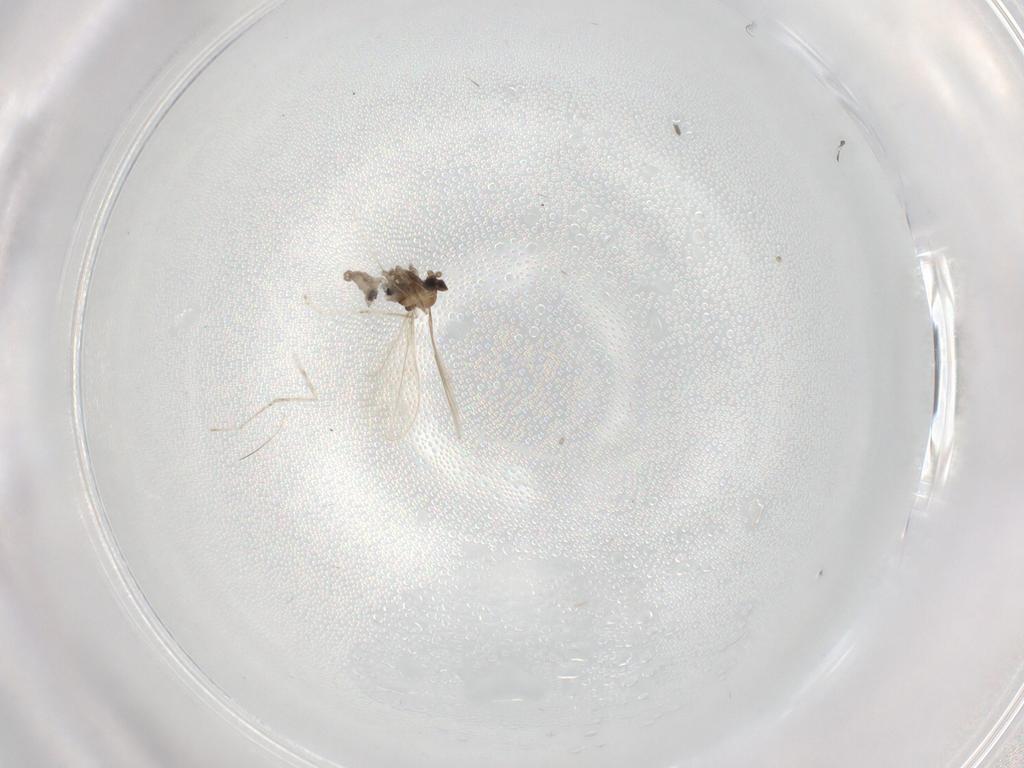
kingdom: Animalia
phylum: Arthropoda
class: Insecta
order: Diptera
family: Cecidomyiidae
